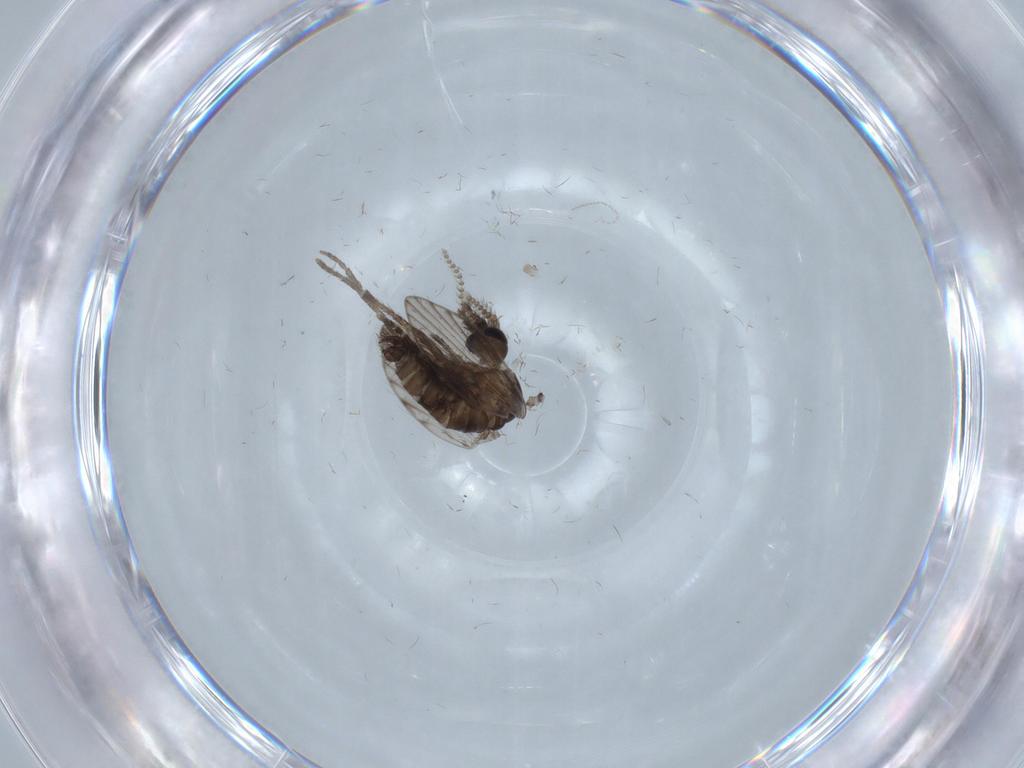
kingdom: Animalia
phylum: Arthropoda
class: Insecta
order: Diptera
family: Psychodidae
